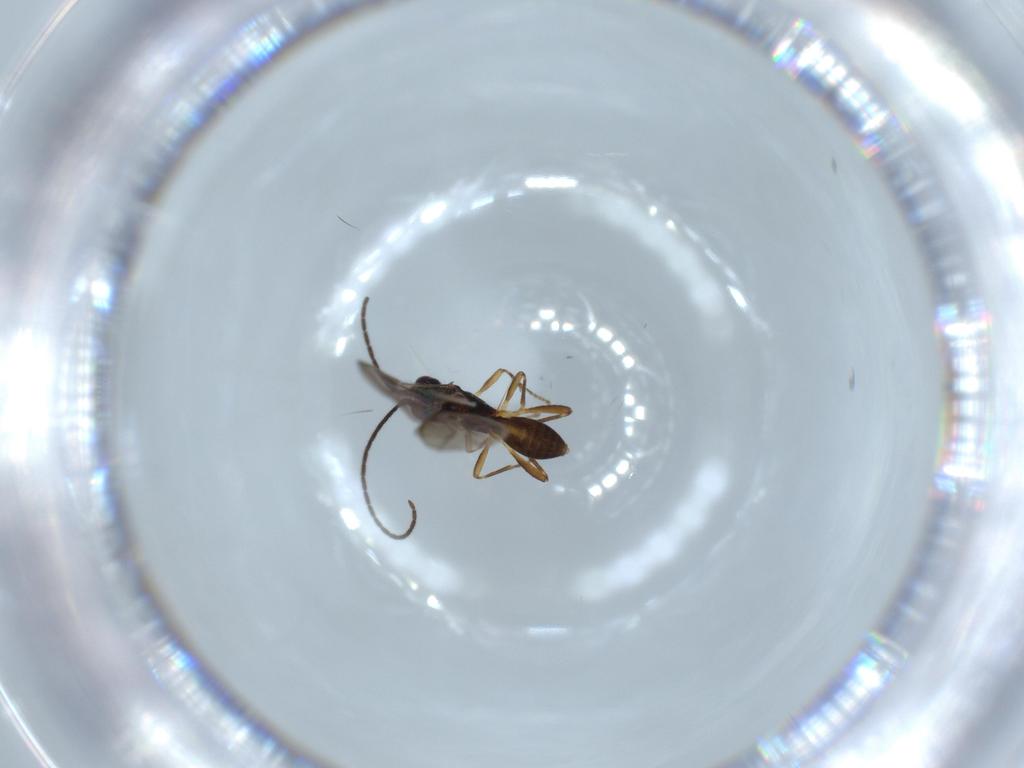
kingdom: Animalia
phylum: Arthropoda
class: Insecta
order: Hymenoptera
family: Braconidae
